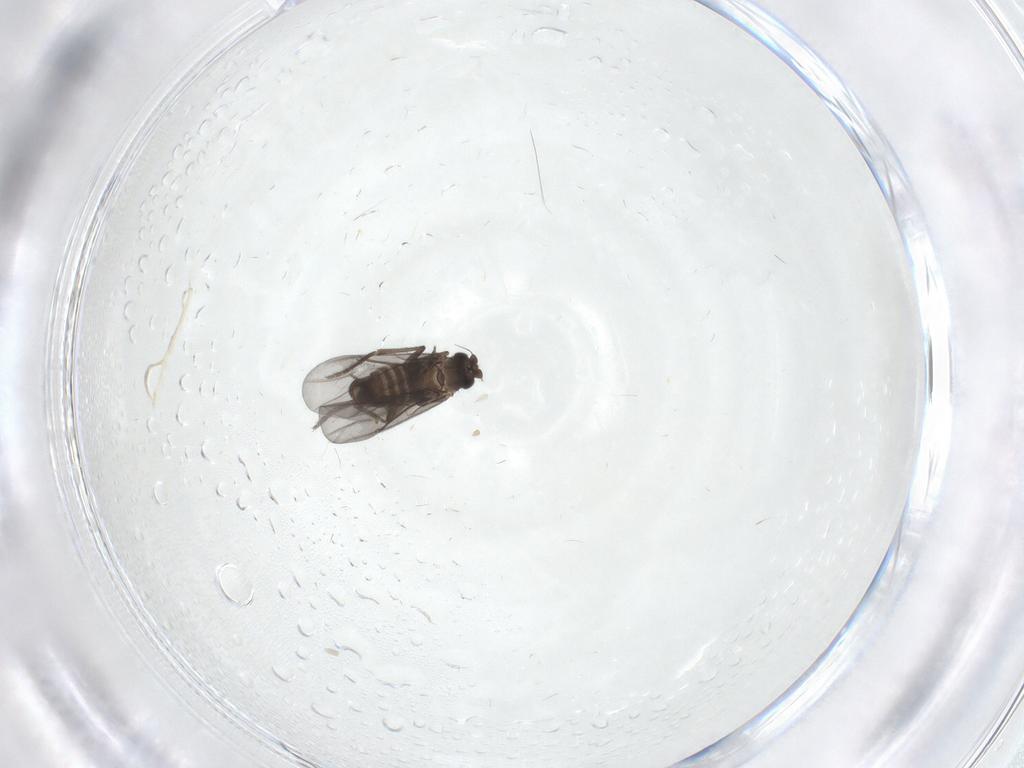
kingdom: Animalia
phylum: Arthropoda
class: Insecta
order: Diptera
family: Phoridae
